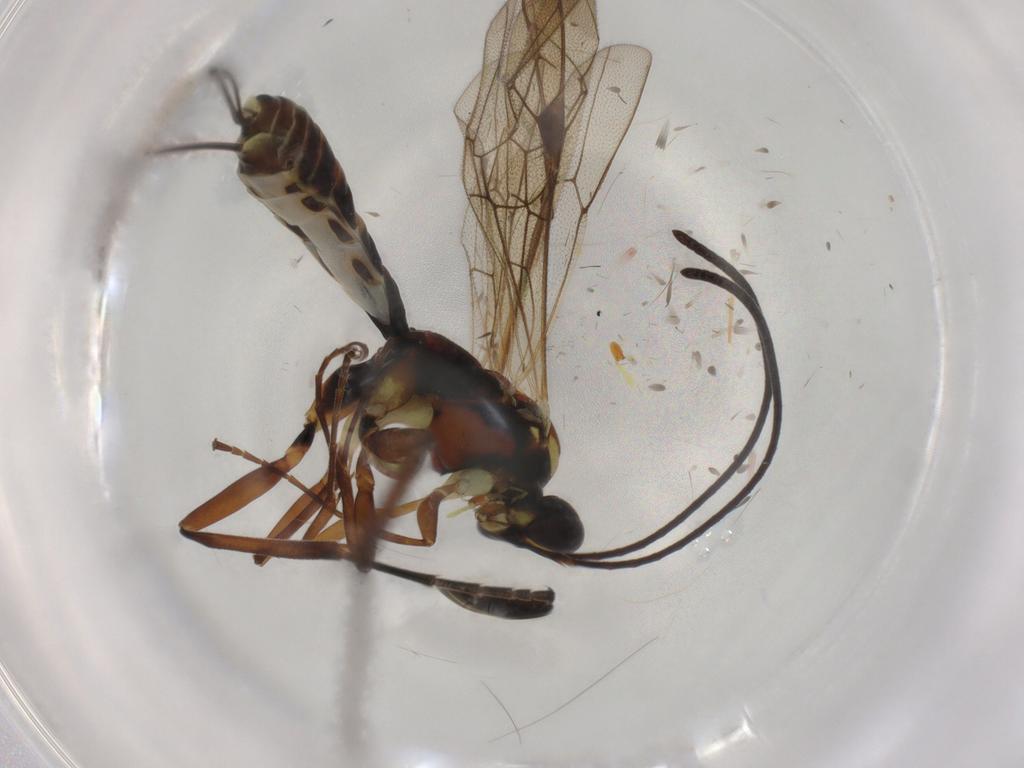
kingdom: Animalia
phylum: Arthropoda
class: Insecta
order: Hymenoptera
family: Ichneumonidae
